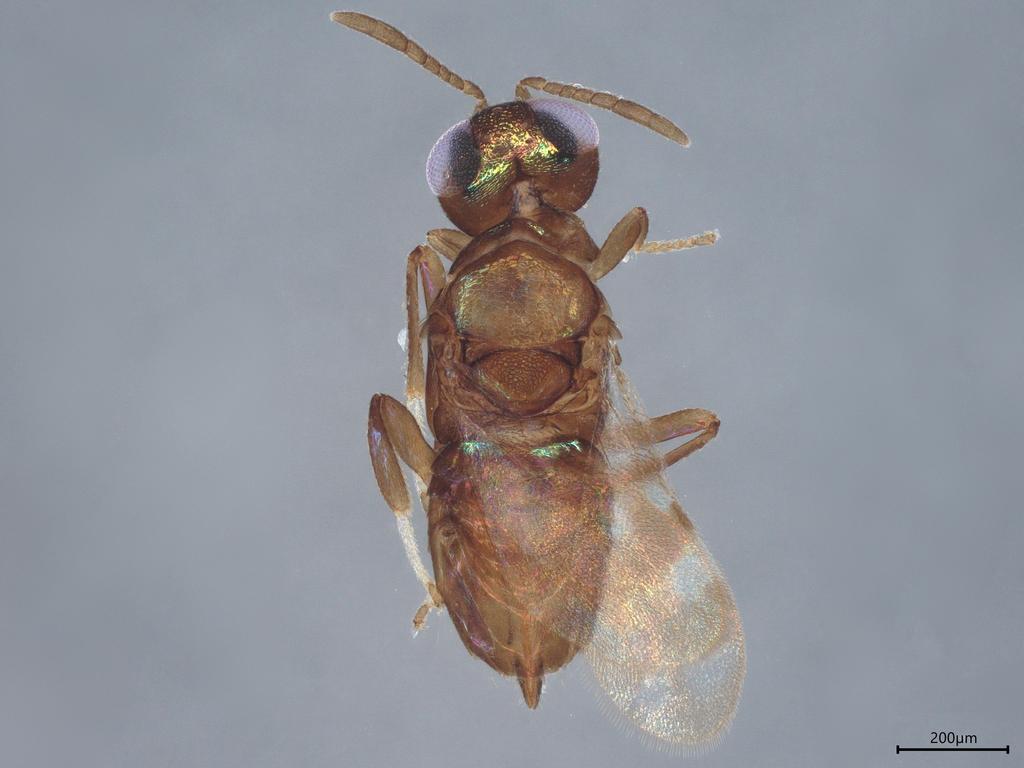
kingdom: Animalia
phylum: Arthropoda
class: Insecta
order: Hymenoptera
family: Encyrtidae
